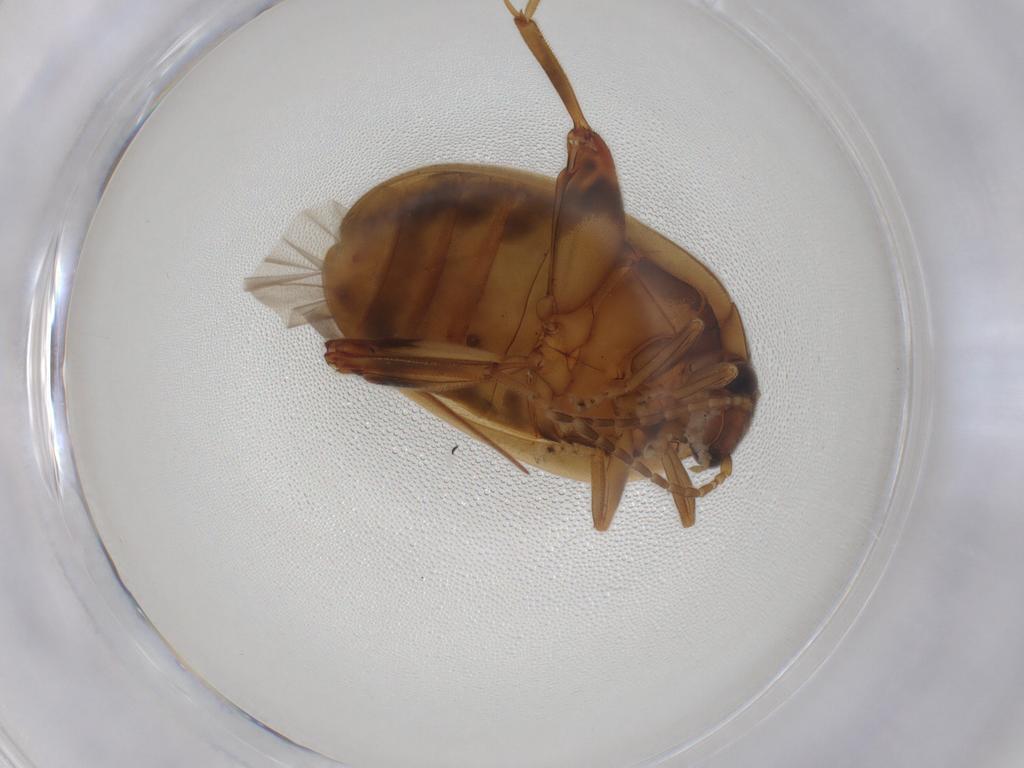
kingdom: Animalia
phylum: Arthropoda
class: Insecta
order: Coleoptera
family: Scirtidae
